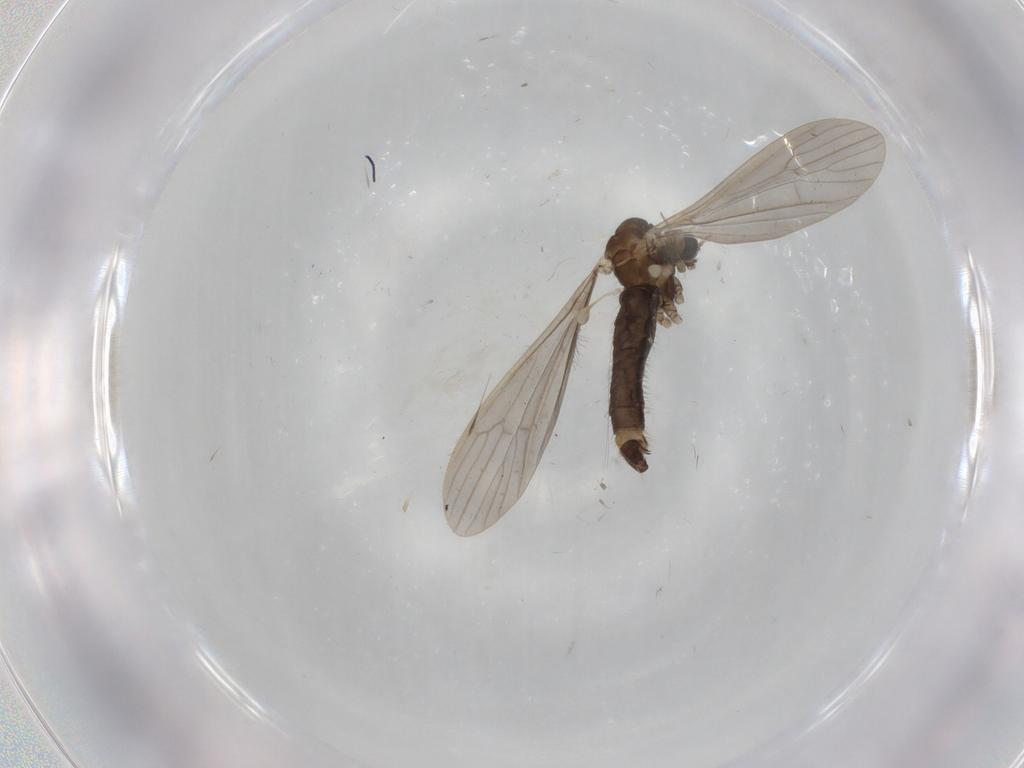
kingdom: Animalia
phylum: Arthropoda
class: Insecta
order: Diptera
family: Limoniidae
